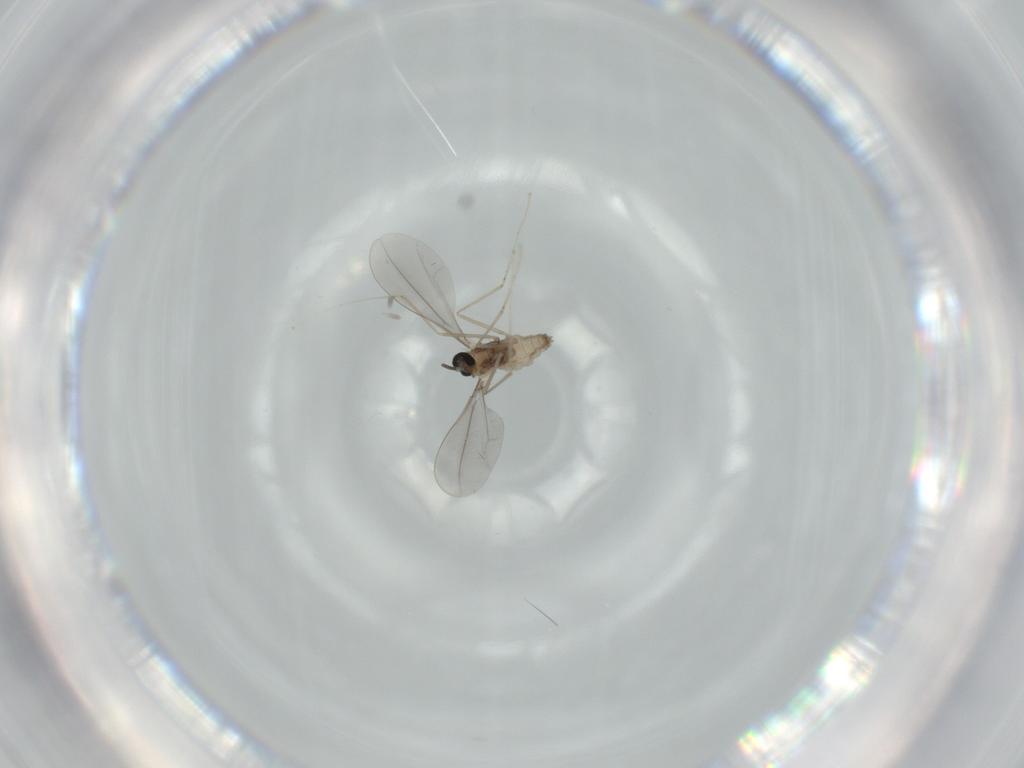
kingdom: Animalia
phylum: Arthropoda
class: Insecta
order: Diptera
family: Cecidomyiidae
